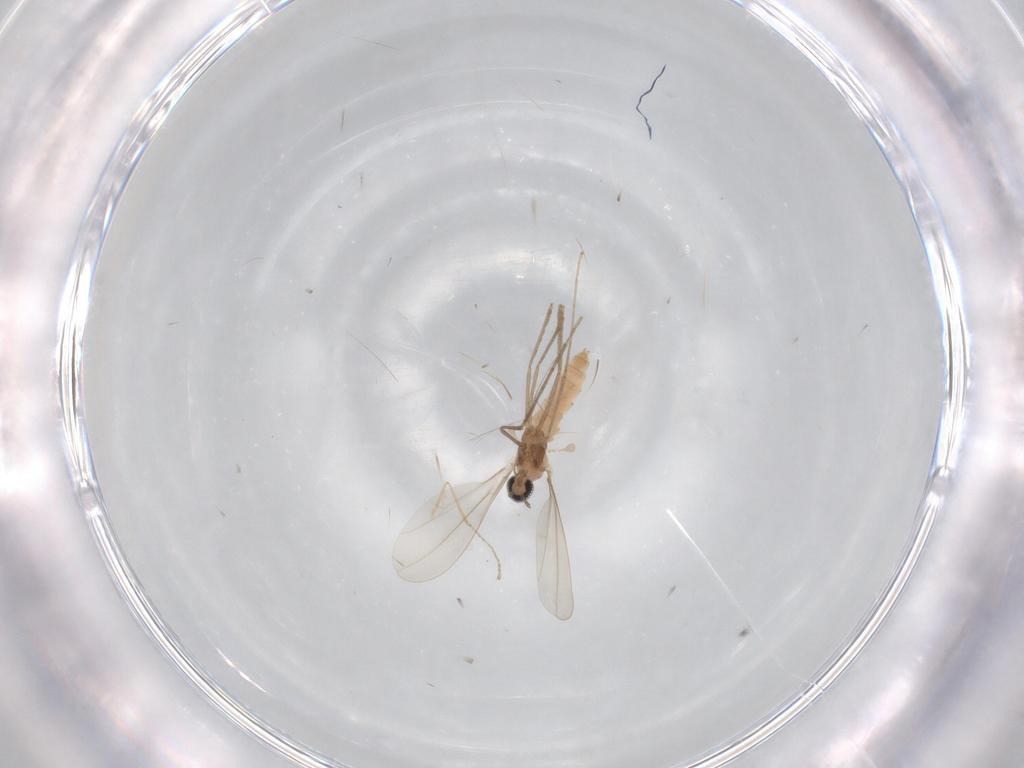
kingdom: Animalia
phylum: Arthropoda
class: Insecta
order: Diptera
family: Cecidomyiidae
